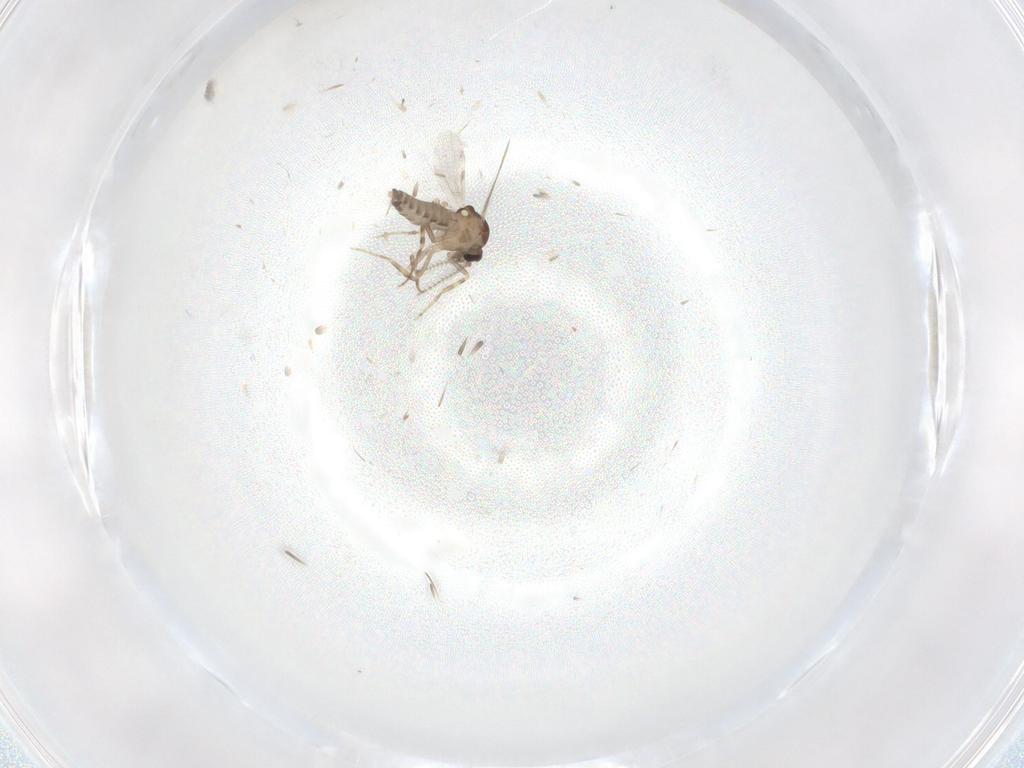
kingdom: Animalia
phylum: Arthropoda
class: Insecta
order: Diptera
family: Ceratopogonidae
